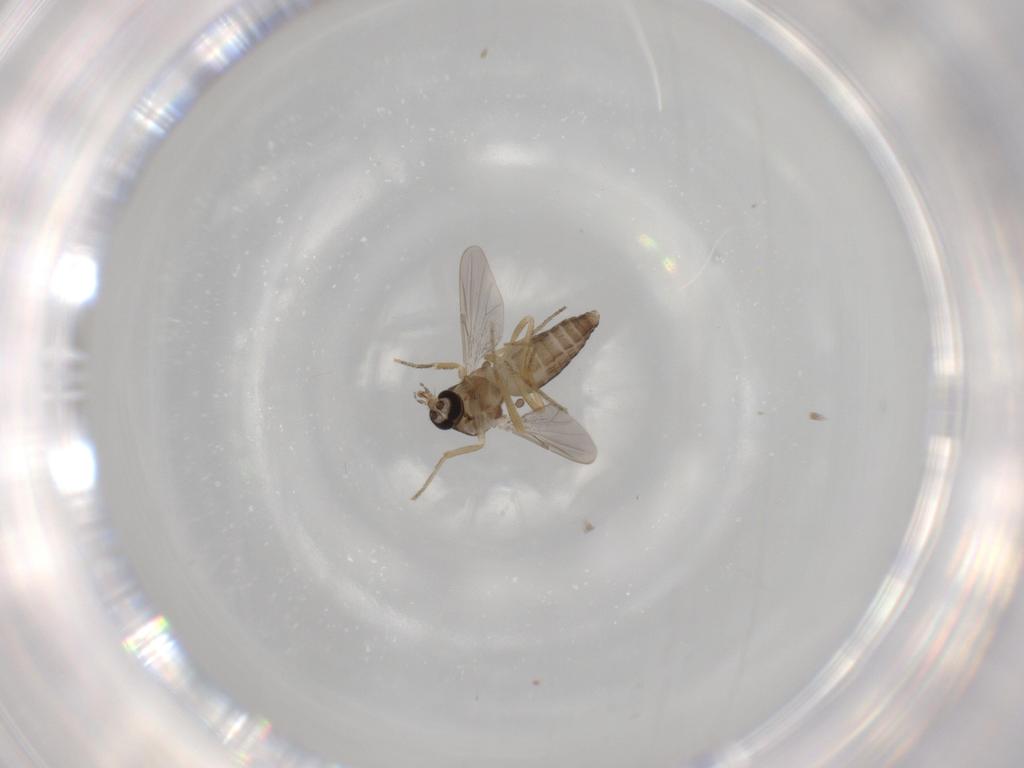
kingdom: Animalia
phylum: Arthropoda
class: Insecta
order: Diptera
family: Ceratopogonidae
